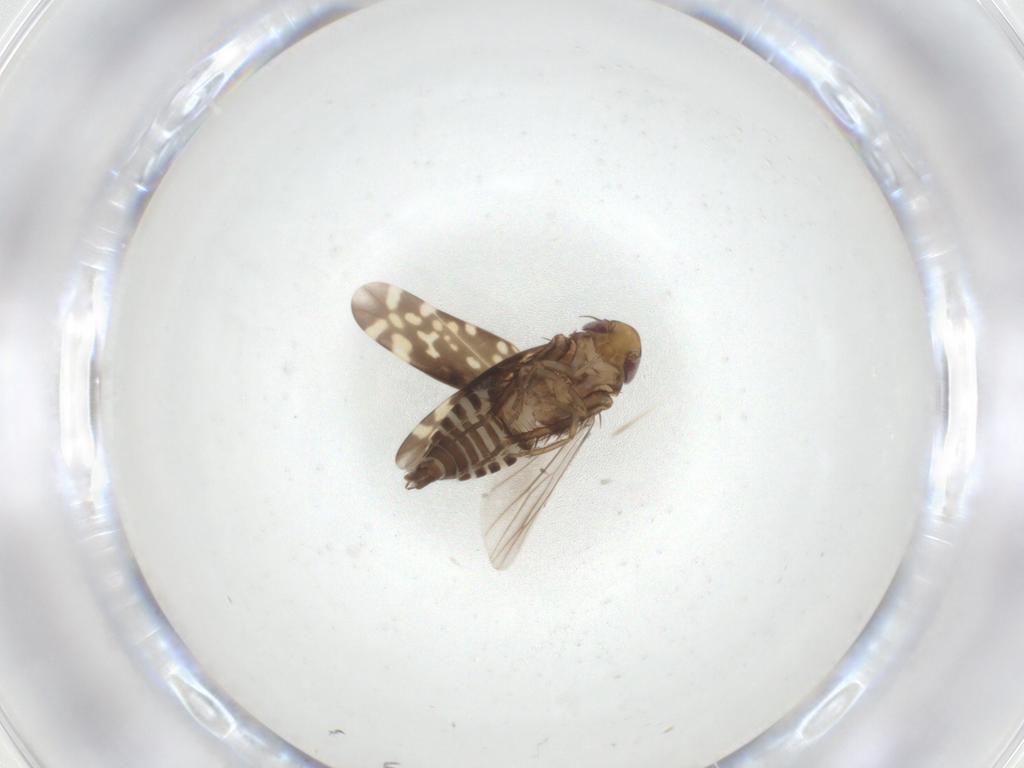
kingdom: Animalia
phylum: Arthropoda
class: Insecta
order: Hemiptera
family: Cicadellidae
